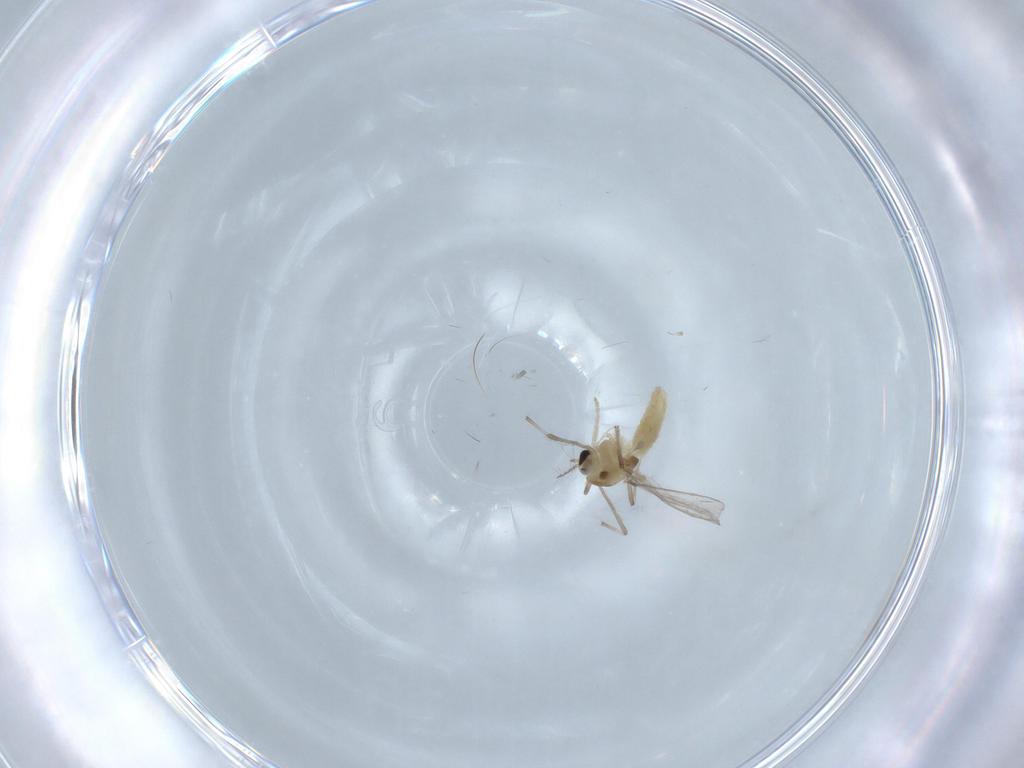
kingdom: Animalia
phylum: Arthropoda
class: Insecta
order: Diptera
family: Chironomidae
